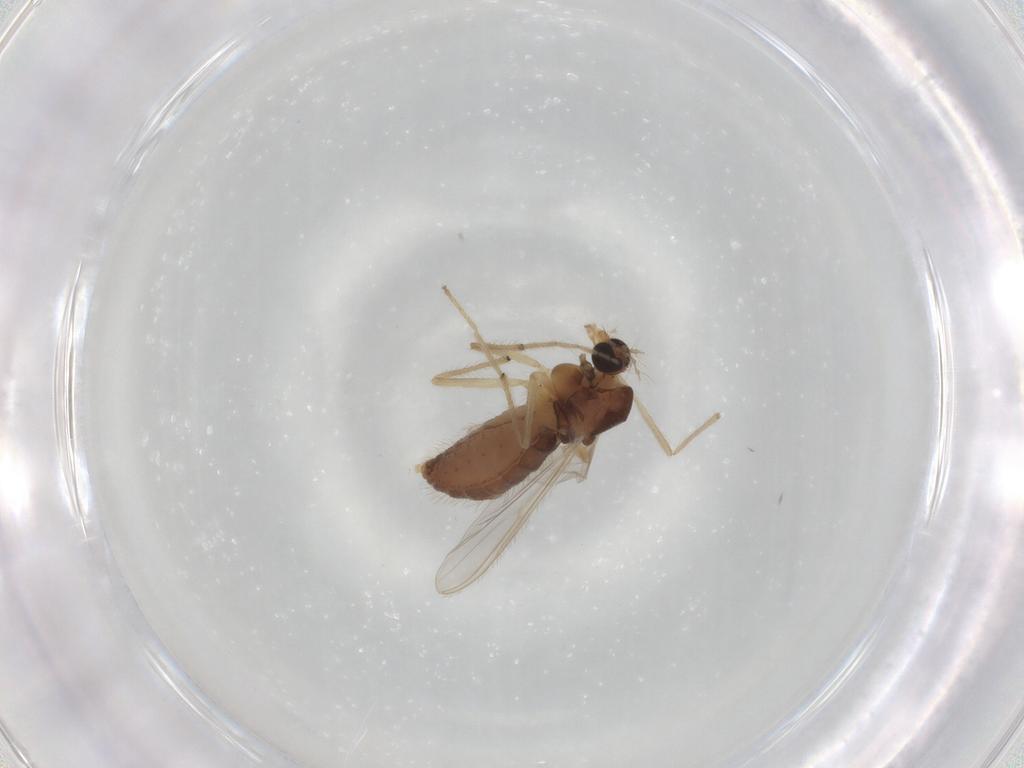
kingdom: Animalia
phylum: Arthropoda
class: Insecta
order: Diptera
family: Chironomidae
